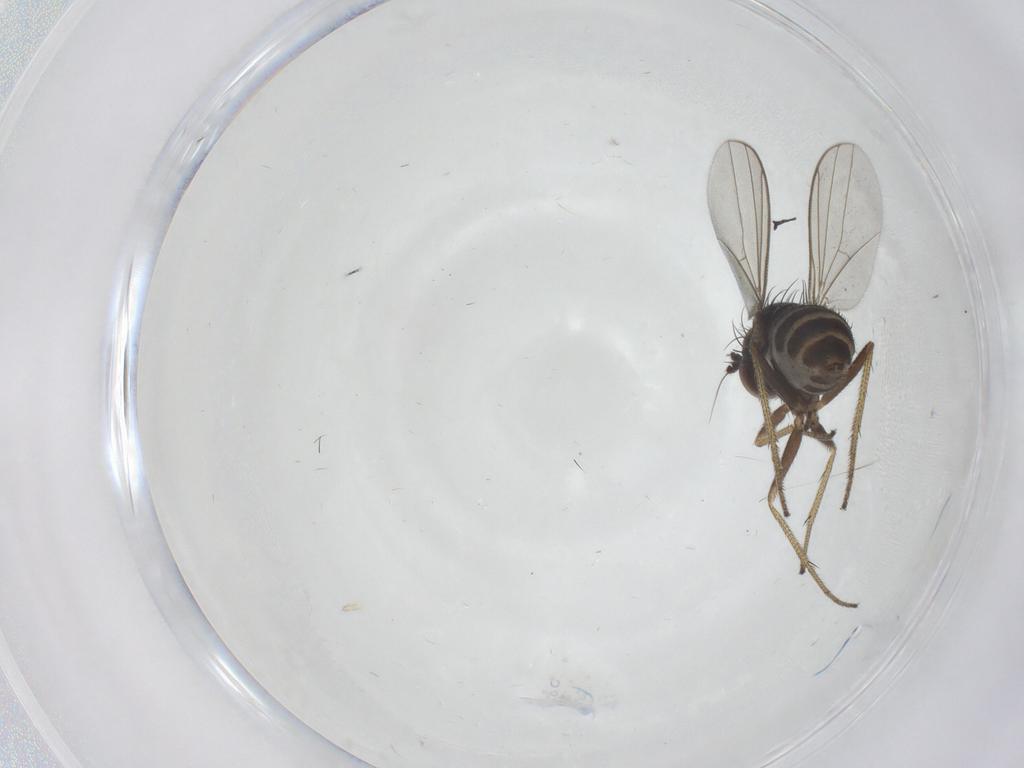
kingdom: Animalia
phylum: Arthropoda
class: Insecta
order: Diptera
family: Dolichopodidae
